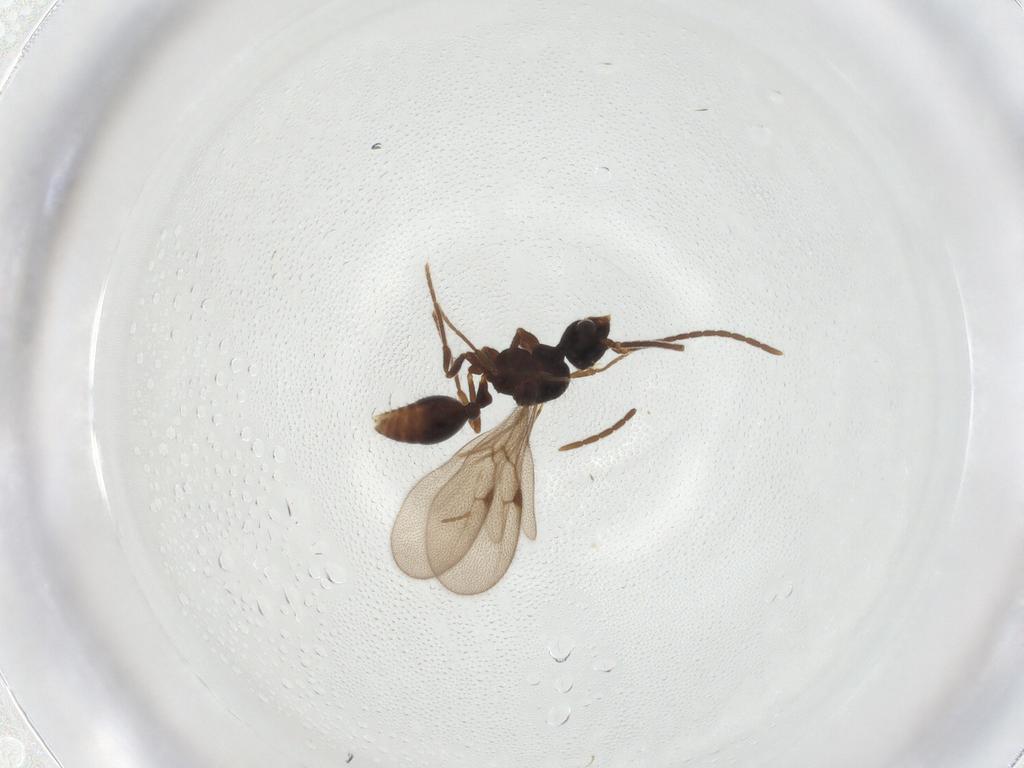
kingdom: Animalia
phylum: Arthropoda
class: Insecta
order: Hymenoptera
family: Formicidae
